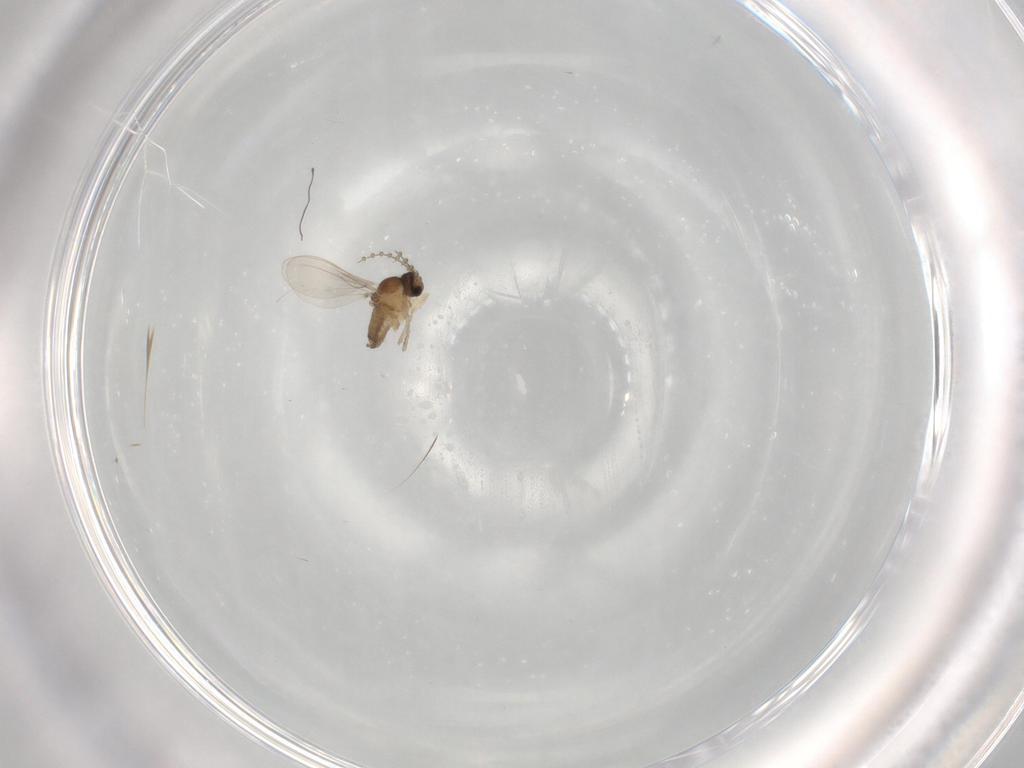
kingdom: Animalia
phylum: Arthropoda
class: Insecta
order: Diptera
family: Cecidomyiidae
